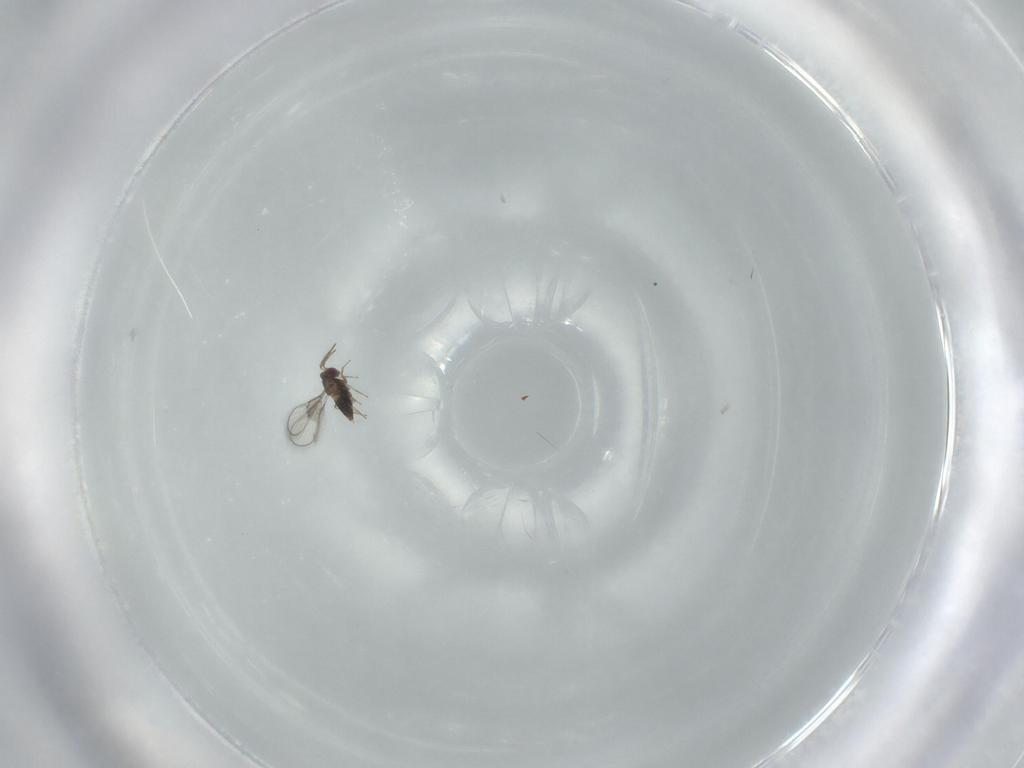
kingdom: Animalia
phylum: Arthropoda
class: Insecta
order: Hymenoptera
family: Trichogrammatidae
